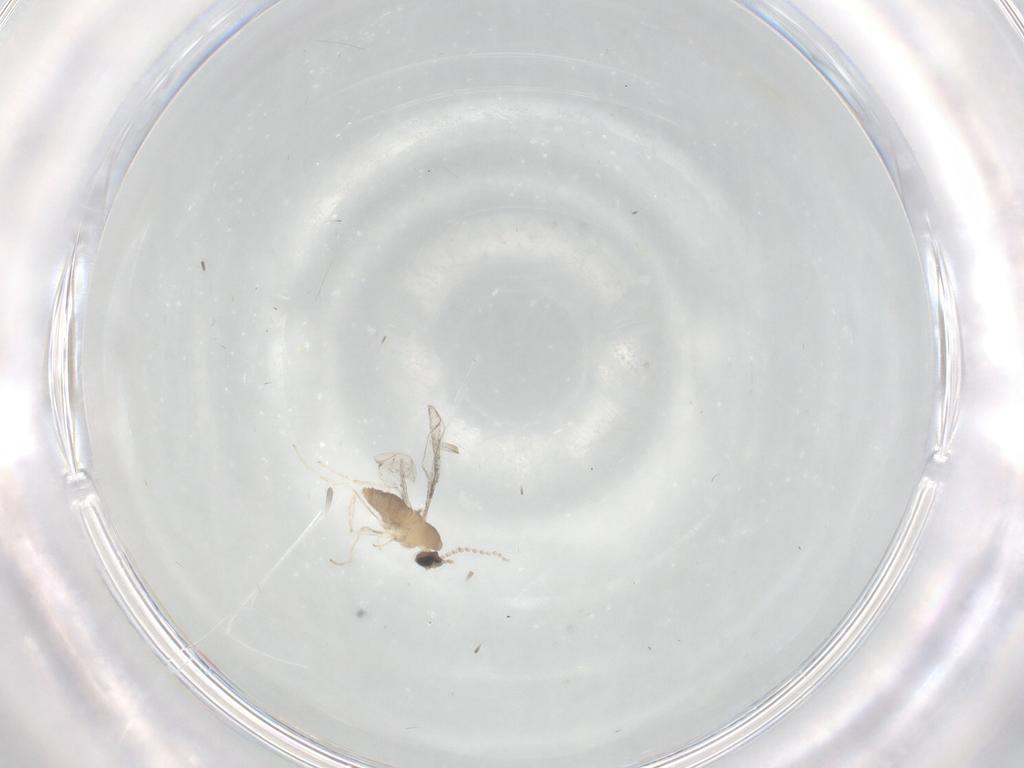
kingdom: Animalia
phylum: Arthropoda
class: Insecta
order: Diptera
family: Cecidomyiidae
